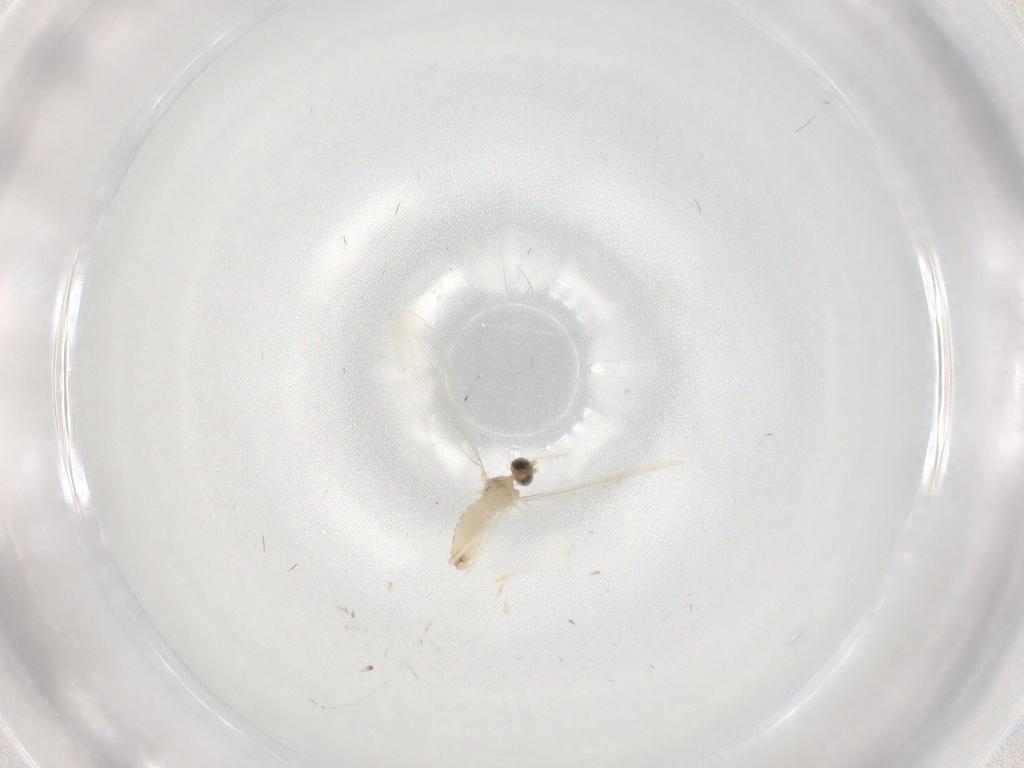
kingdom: Animalia
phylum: Arthropoda
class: Insecta
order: Diptera
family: Cecidomyiidae
